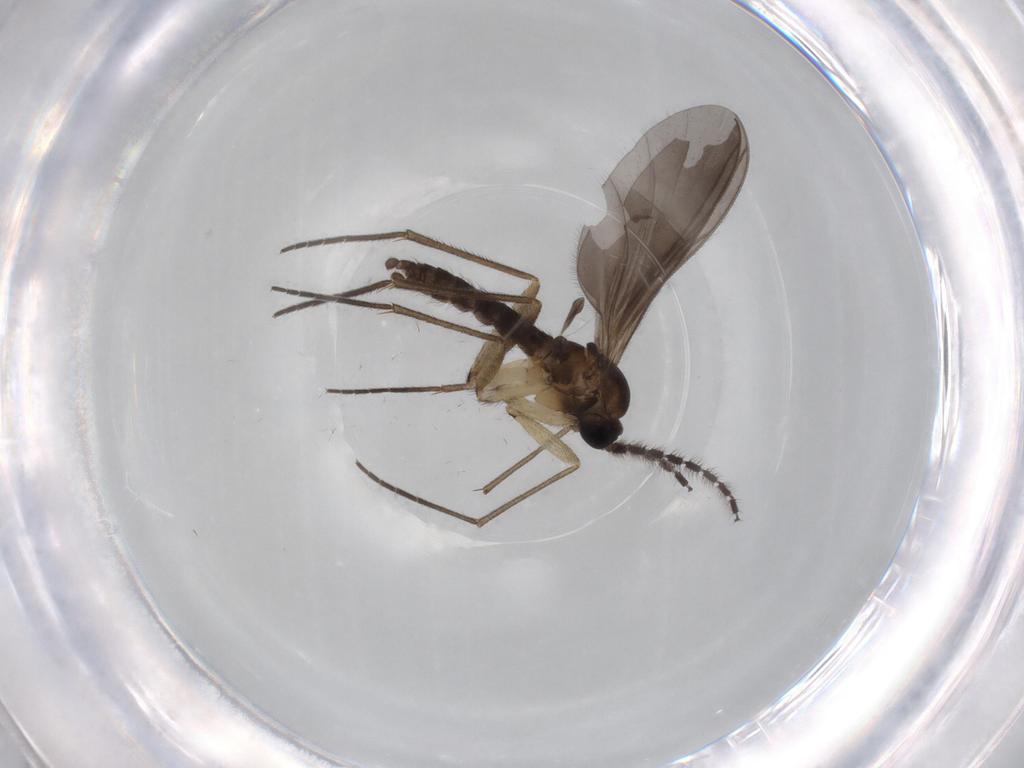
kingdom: Animalia
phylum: Arthropoda
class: Insecta
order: Diptera
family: Sciaridae
